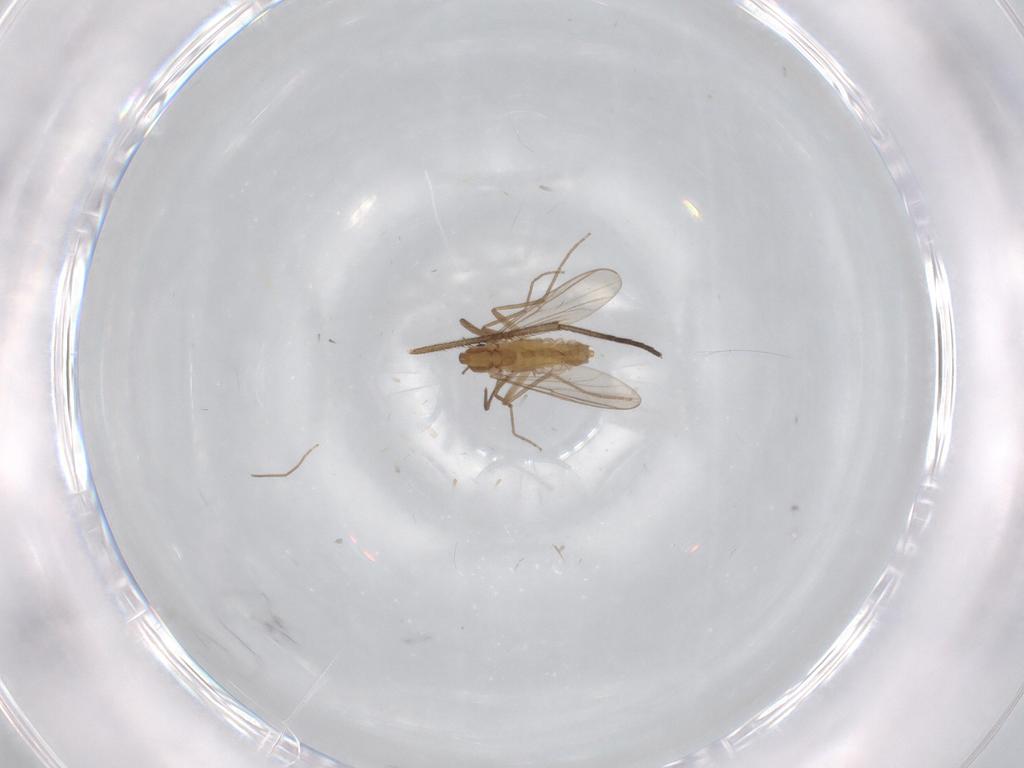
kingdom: Animalia
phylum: Arthropoda
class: Insecta
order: Diptera
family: Chironomidae
